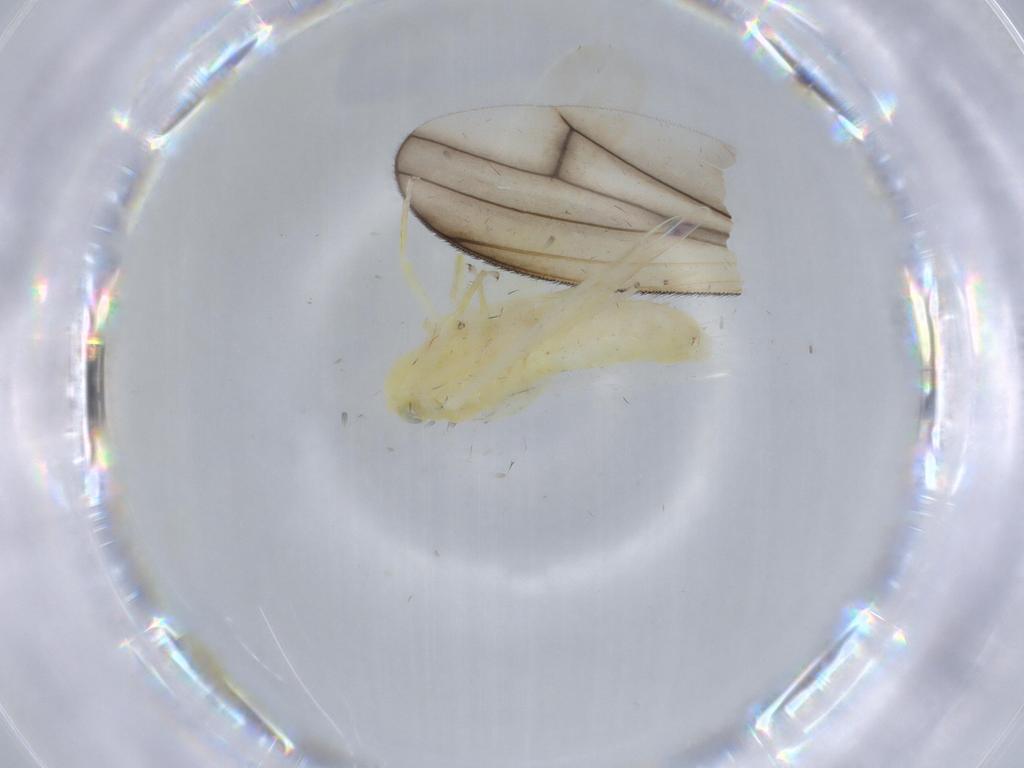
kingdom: Animalia
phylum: Arthropoda
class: Insecta
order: Hemiptera
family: Cicadellidae
